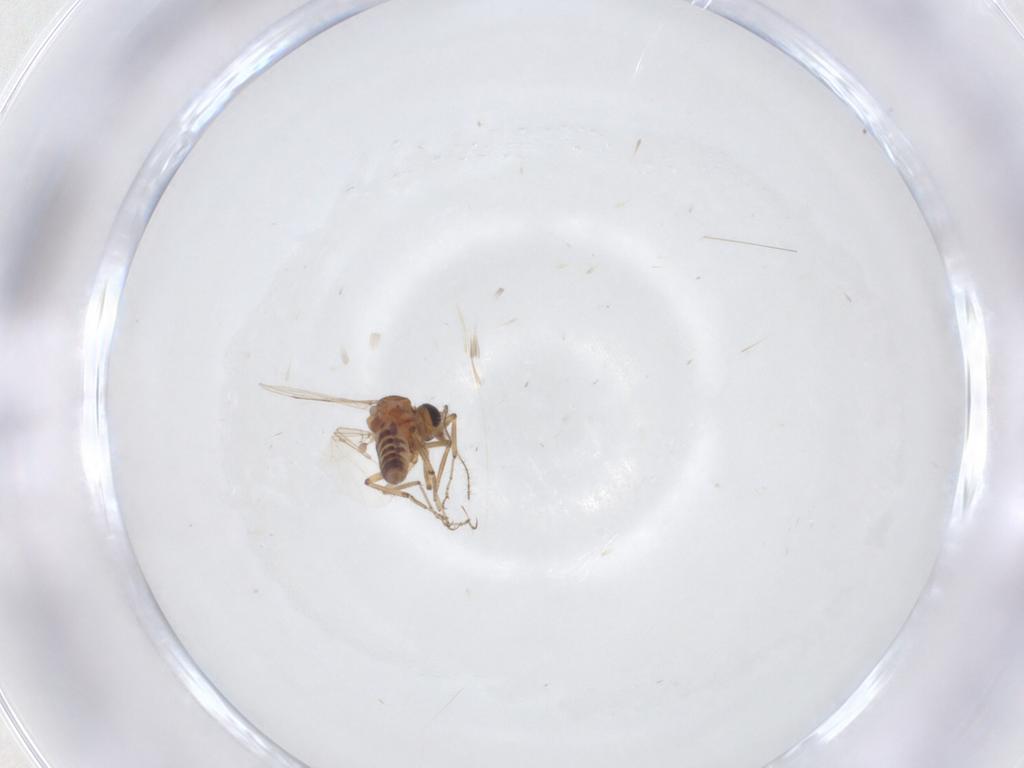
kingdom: Animalia
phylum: Arthropoda
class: Insecta
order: Diptera
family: Ceratopogonidae
